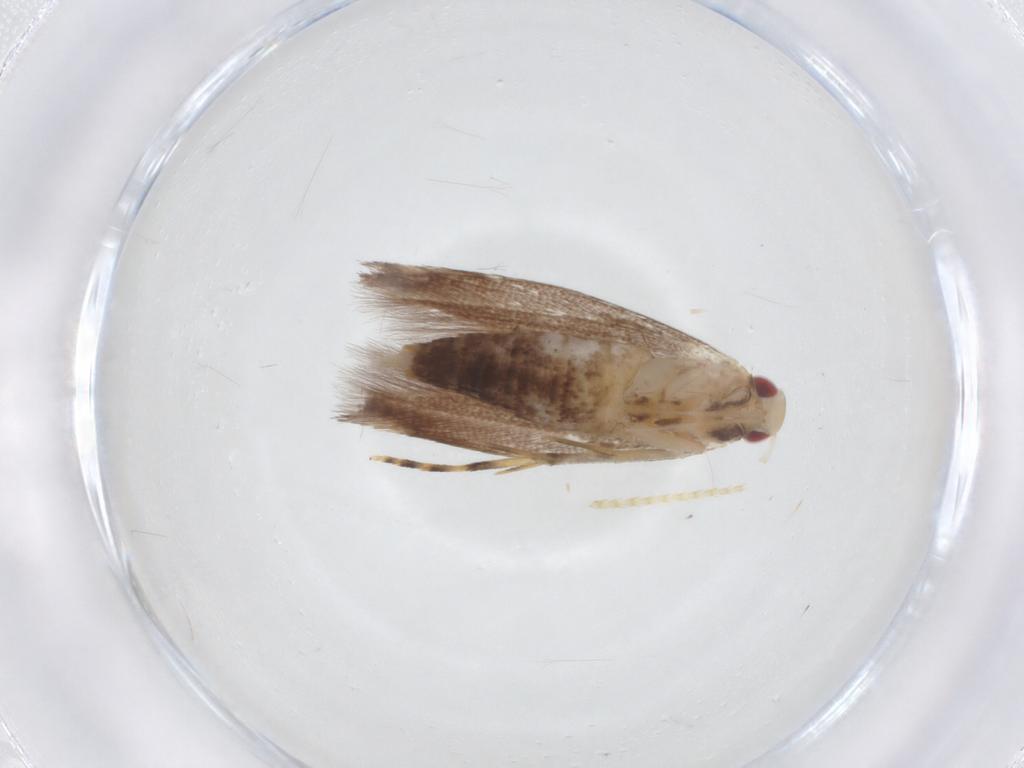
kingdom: Animalia
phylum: Arthropoda
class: Insecta
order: Lepidoptera
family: Cosmopterigidae
